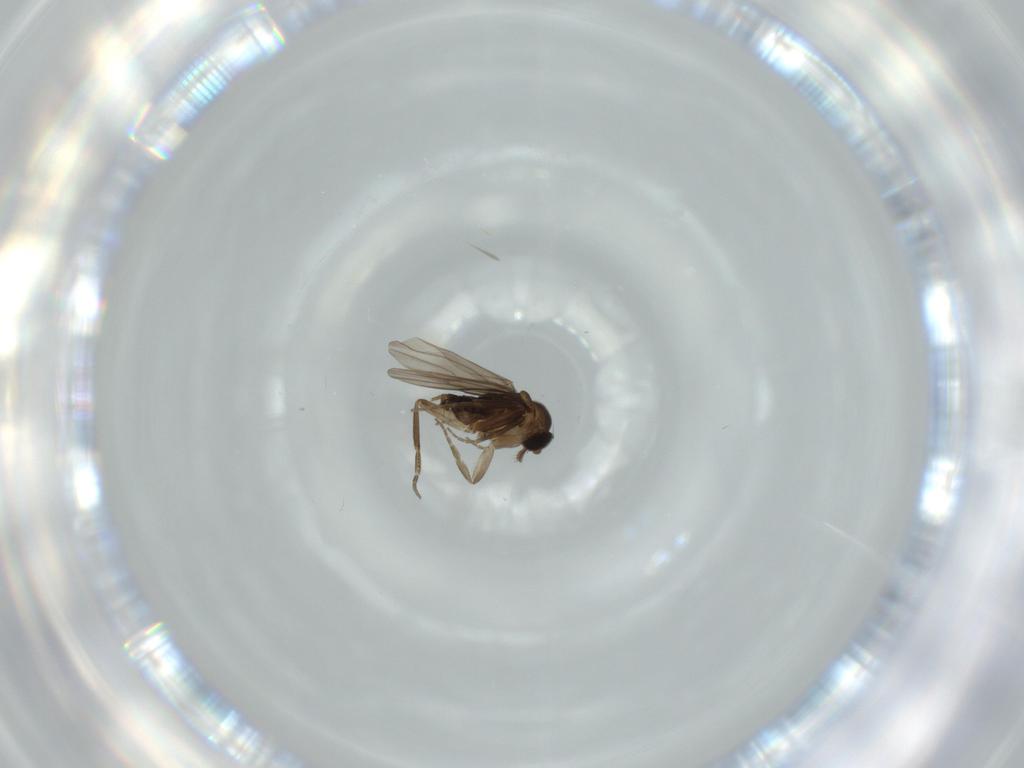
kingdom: Animalia
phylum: Arthropoda
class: Insecta
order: Diptera
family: Cecidomyiidae
